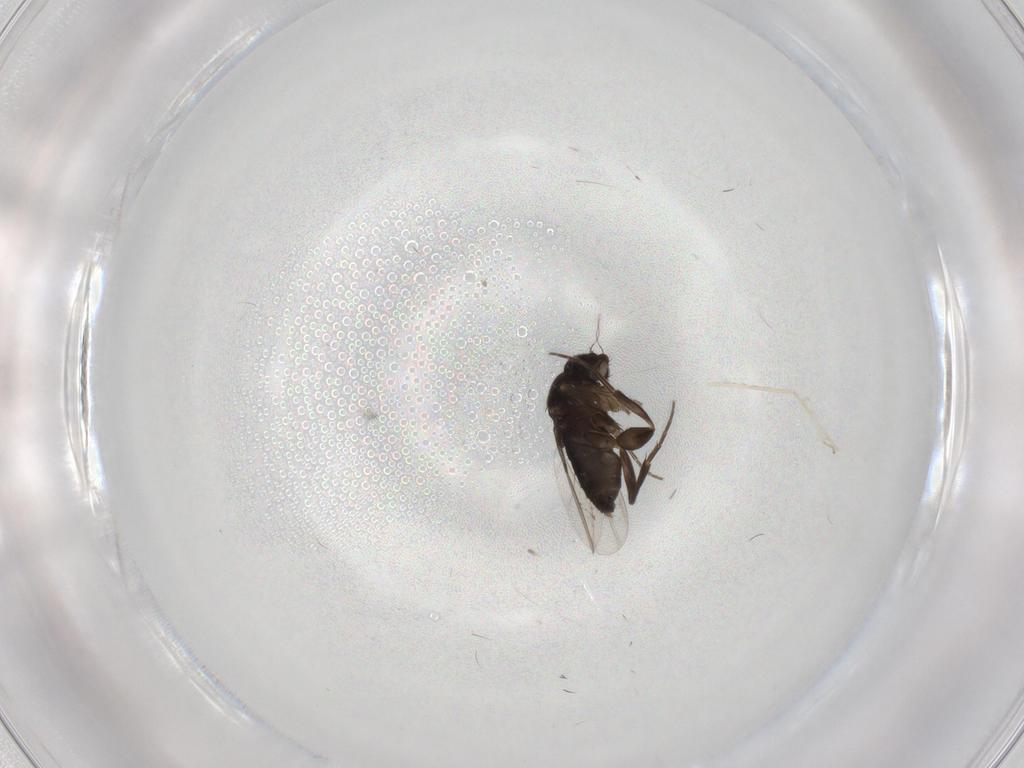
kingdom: Animalia
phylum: Arthropoda
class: Insecta
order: Diptera
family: Phoridae
